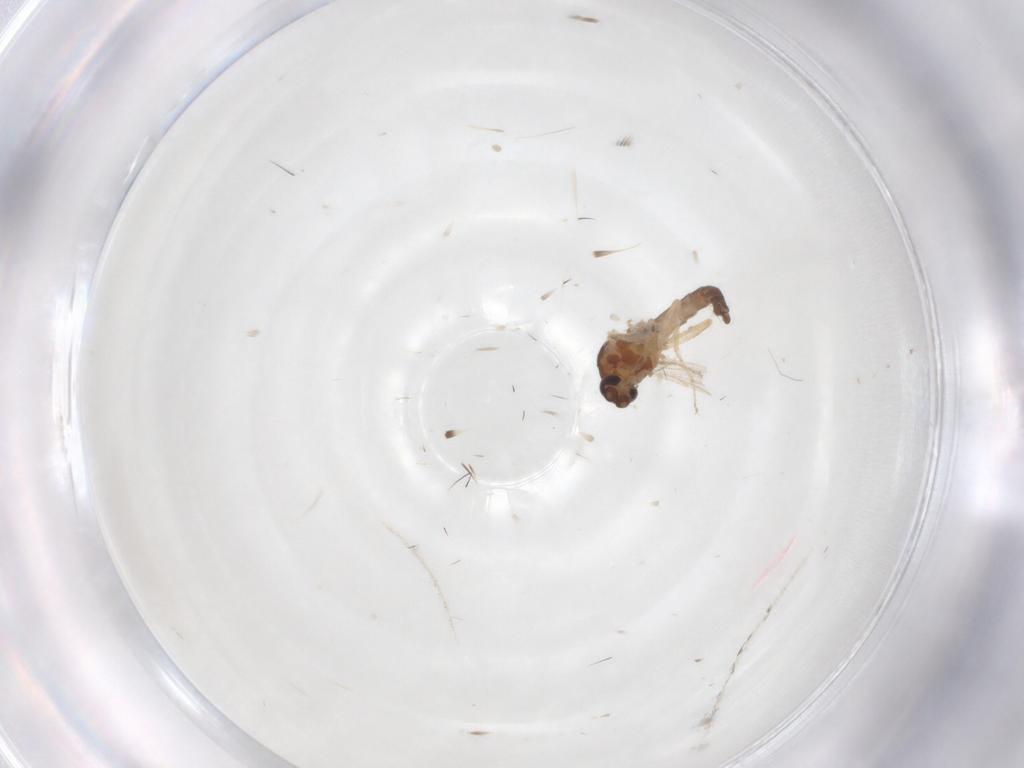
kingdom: Animalia
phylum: Arthropoda
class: Insecta
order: Diptera
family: Ceratopogonidae
